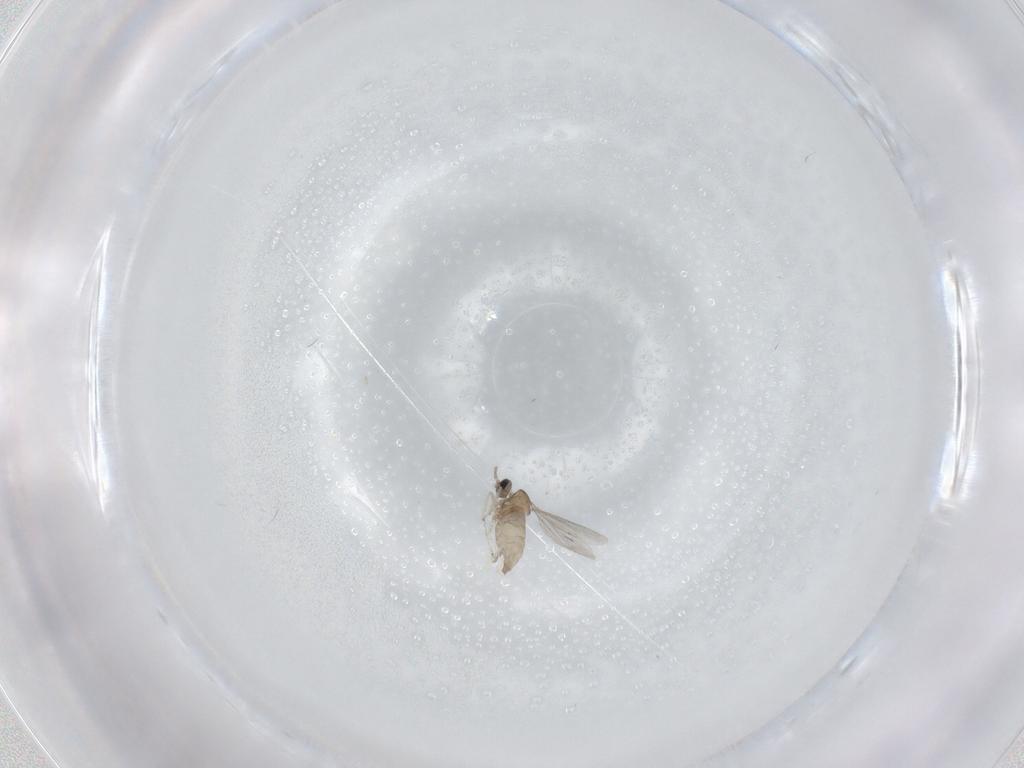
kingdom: Animalia
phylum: Arthropoda
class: Insecta
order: Diptera
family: Cecidomyiidae
